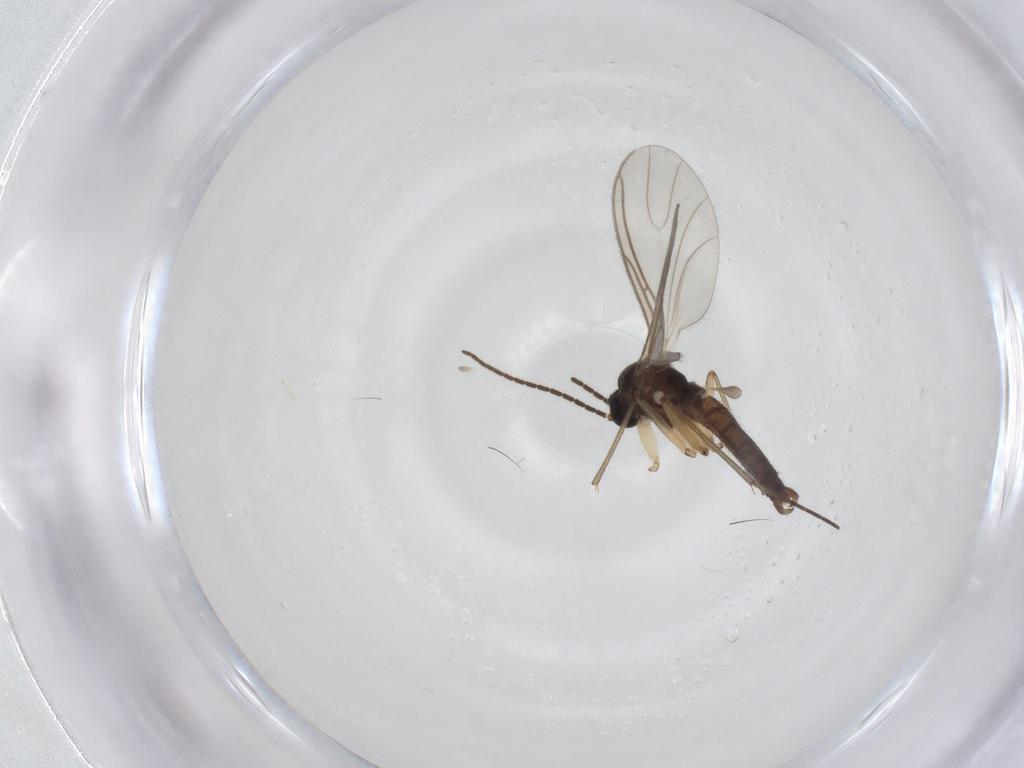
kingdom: Animalia
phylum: Arthropoda
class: Insecta
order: Diptera
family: Sciaridae
